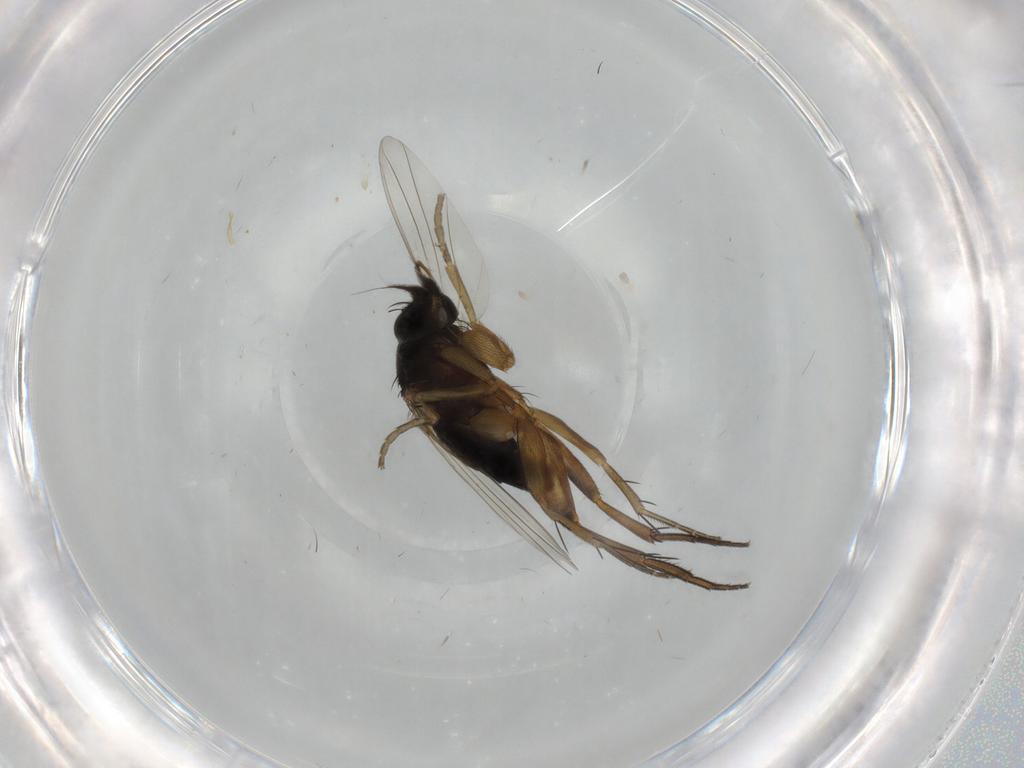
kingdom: Animalia
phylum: Arthropoda
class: Insecta
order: Diptera
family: Phoridae
